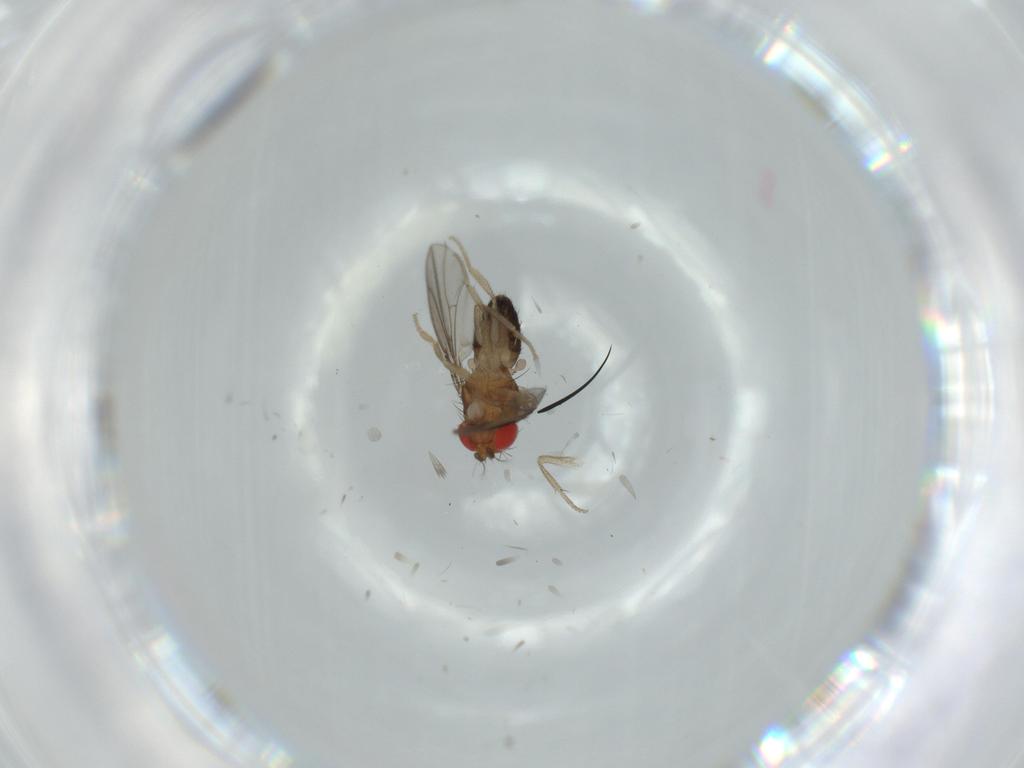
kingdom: Animalia
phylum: Arthropoda
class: Insecta
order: Diptera
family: Drosophilidae
